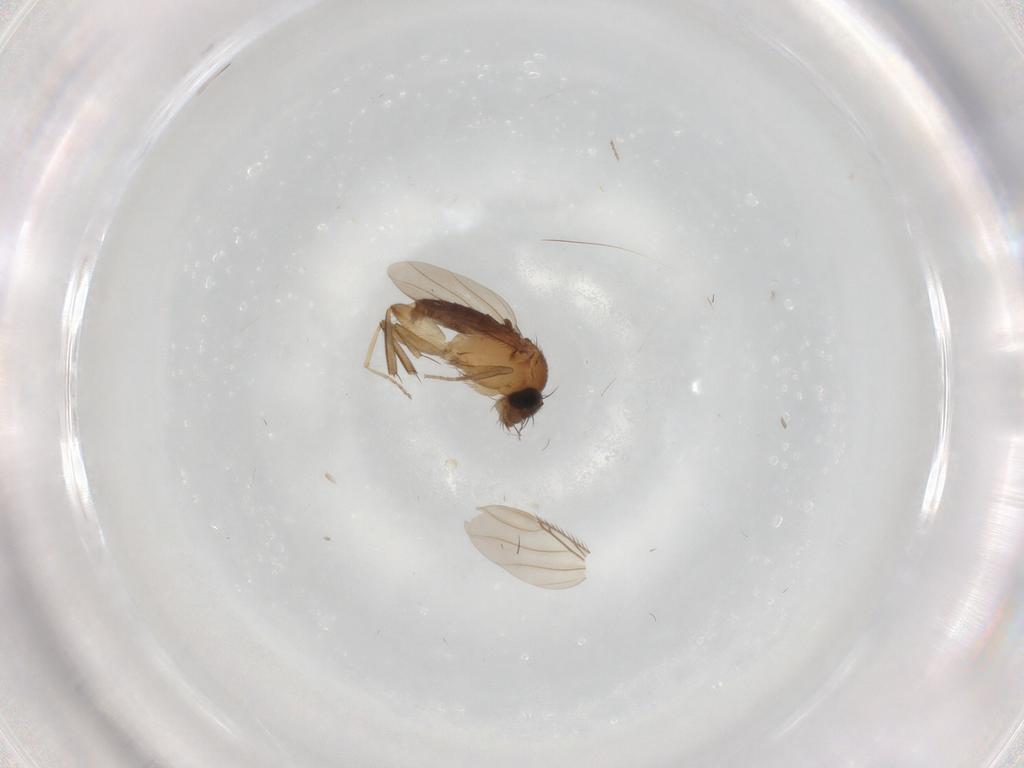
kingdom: Animalia
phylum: Arthropoda
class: Insecta
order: Diptera
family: Phoridae
